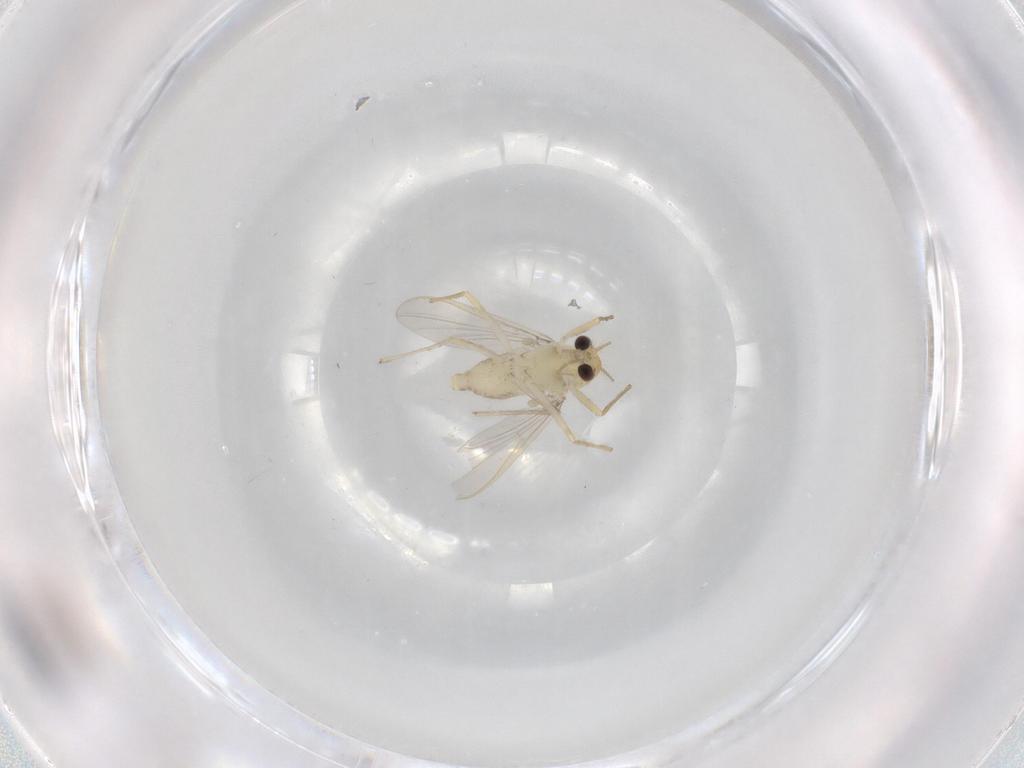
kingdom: Animalia
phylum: Arthropoda
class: Insecta
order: Diptera
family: Chironomidae
